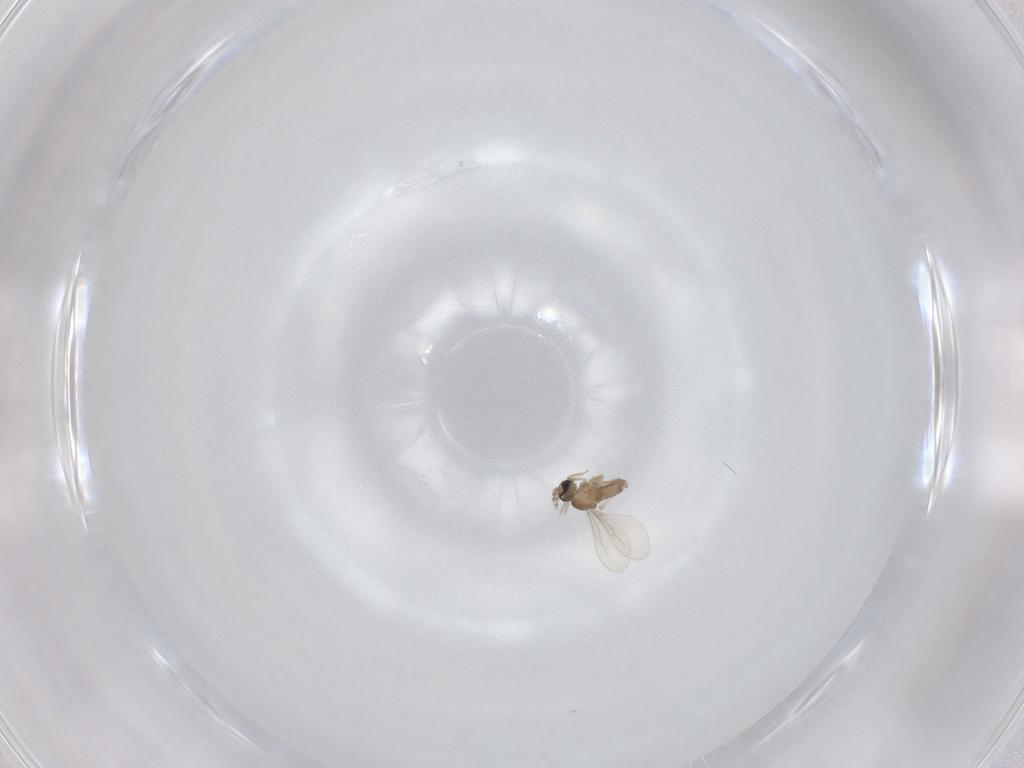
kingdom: Animalia
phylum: Arthropoda
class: Insecta
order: Diptera
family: Cecidomyiidae
